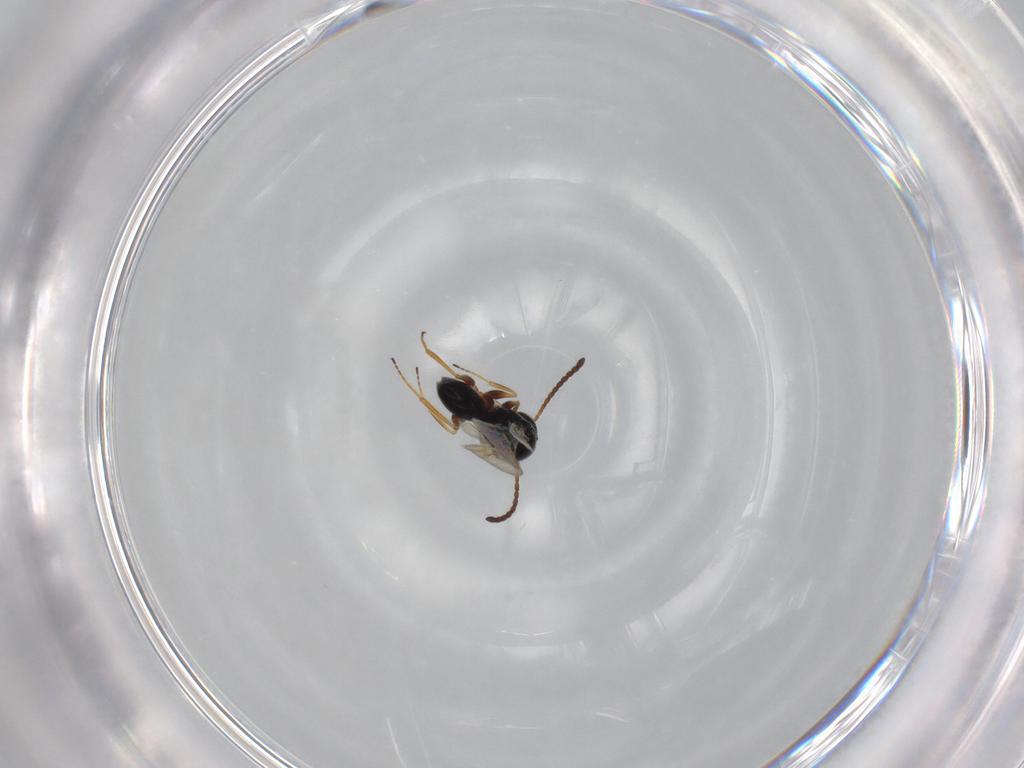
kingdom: Animalia
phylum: Arthropoda
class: Insecta
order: Hymenoptera
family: Figitidae
